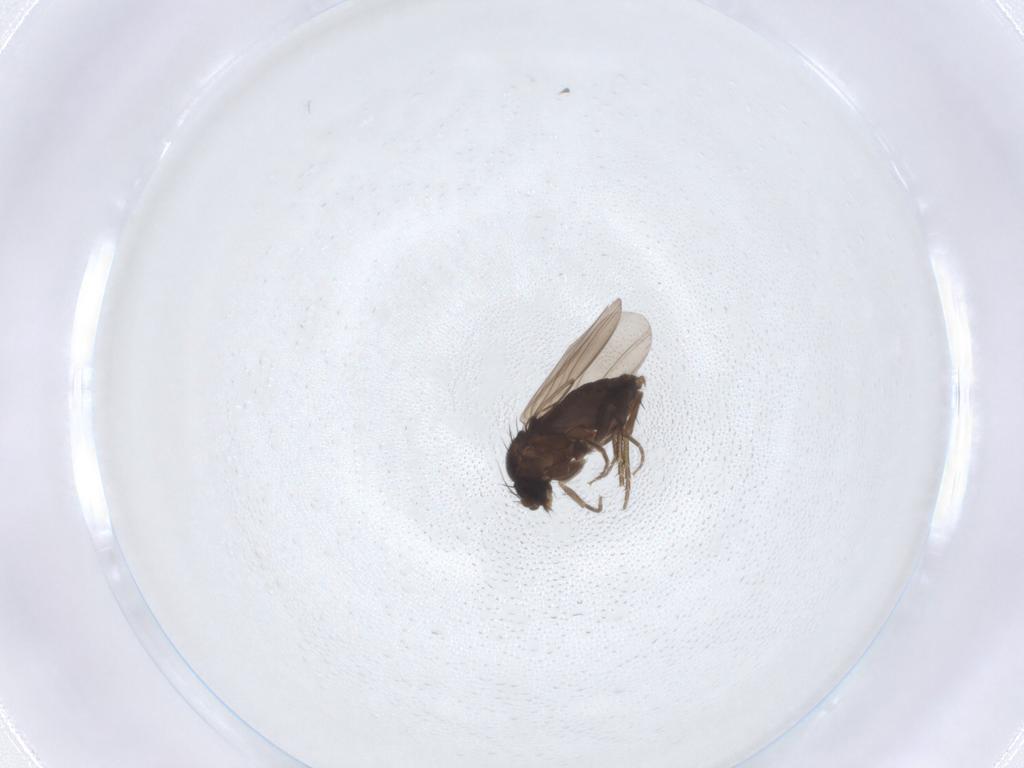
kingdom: Animalia
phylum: Arthropoda
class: Insecta
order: Diptera
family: Phoridae
